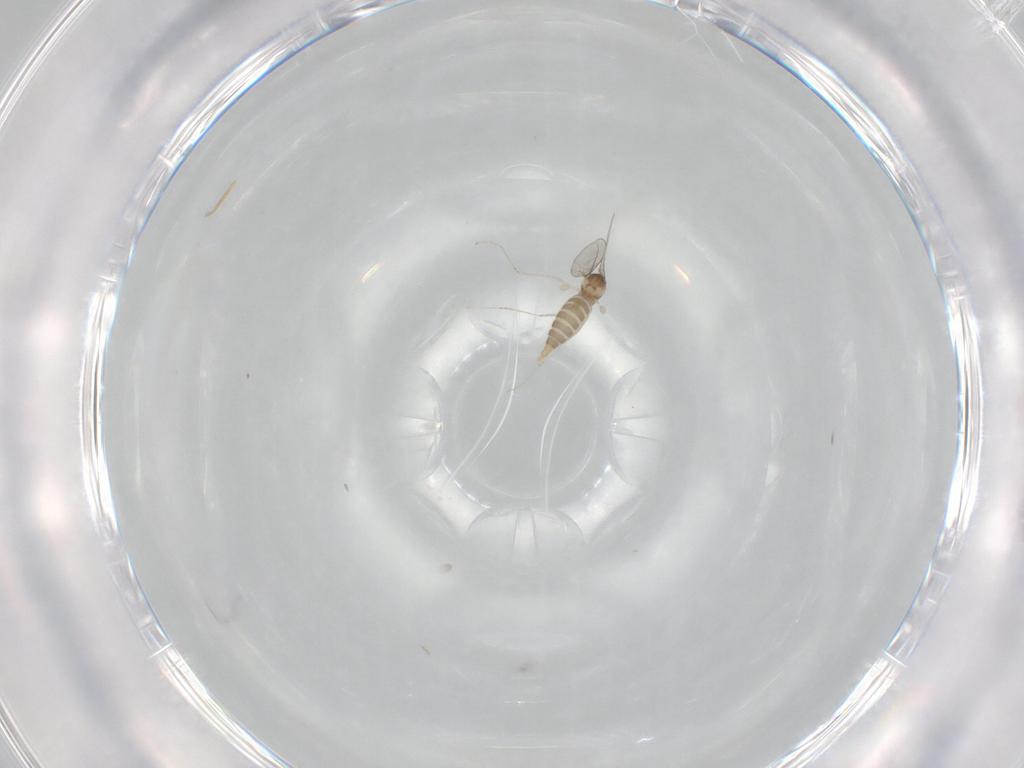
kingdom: Animalia
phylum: Arthropoda
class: Insecta
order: Diptera
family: Cecidomyiidae
